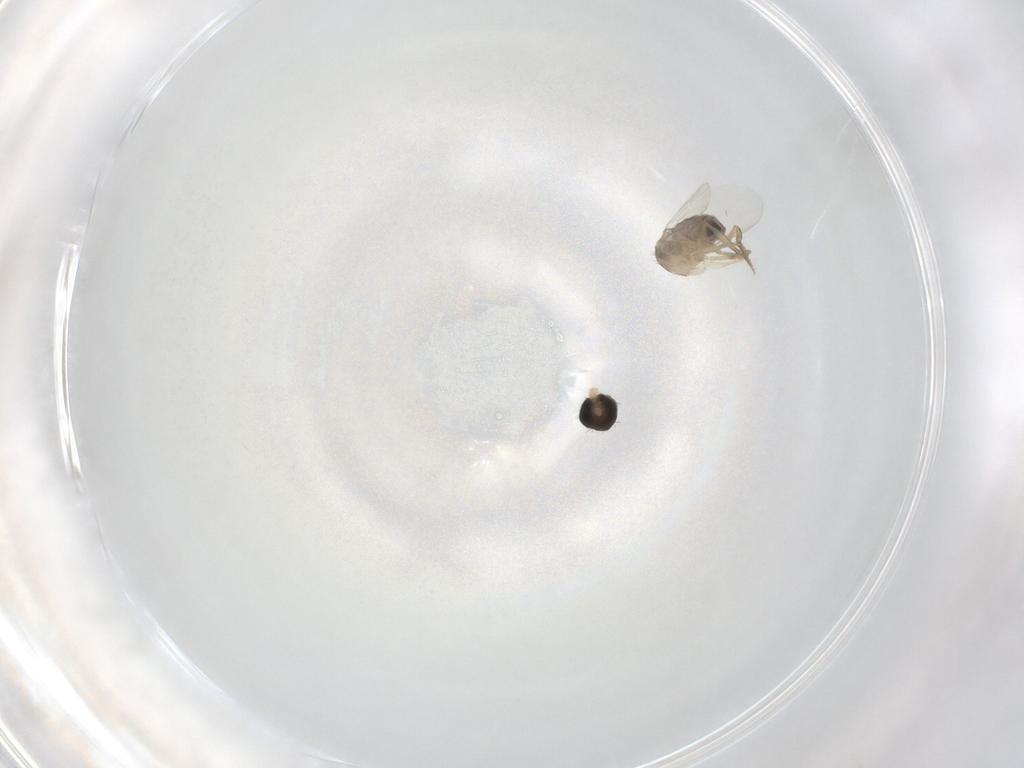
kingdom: Animalia
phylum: Arthropoda
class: Insecta
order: Diptera
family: Phoridae
